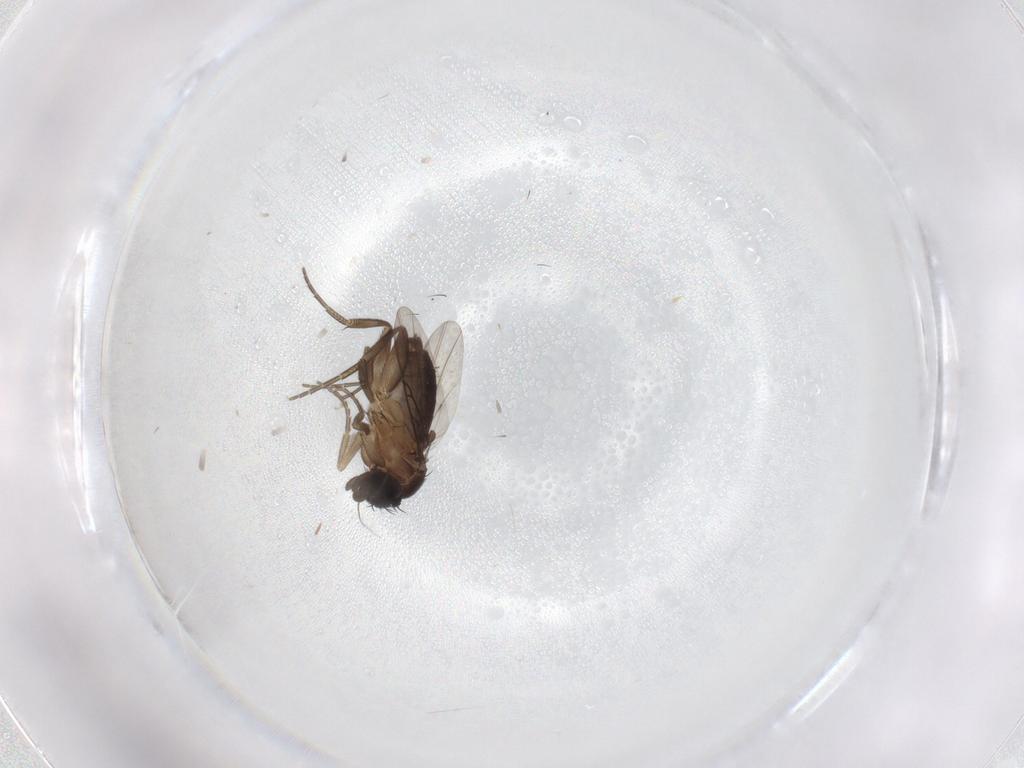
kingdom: Animalia
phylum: Arthropoda
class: Insecta
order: Diptera
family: Phoridae
